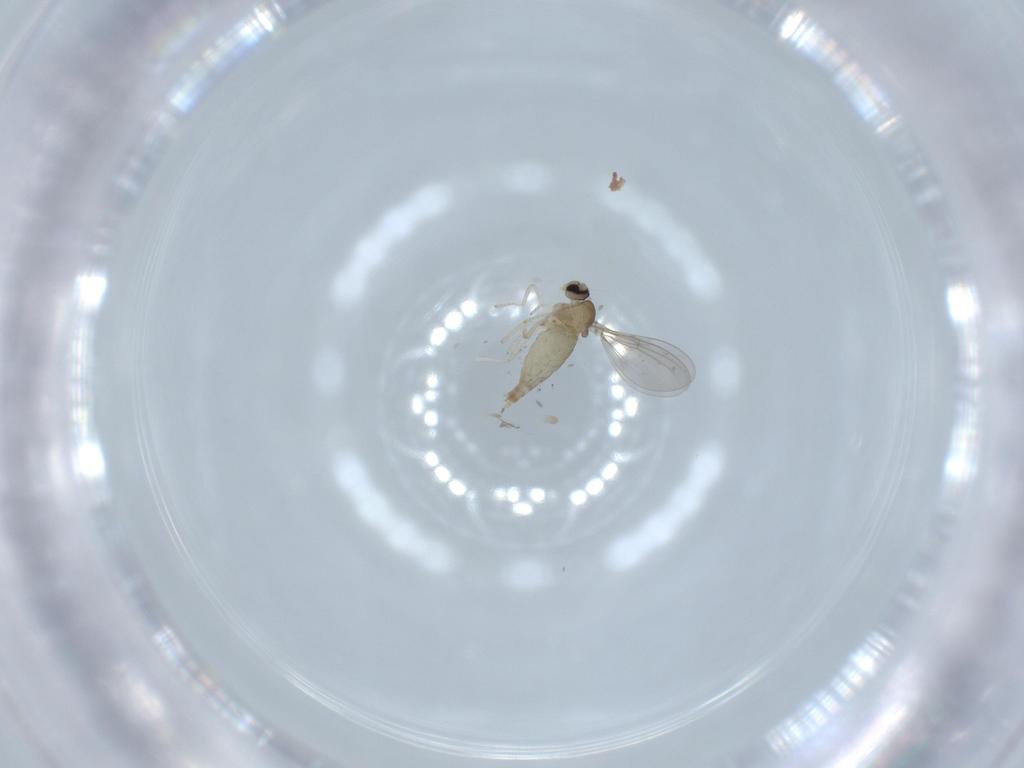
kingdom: Animalia
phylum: Arthropoda
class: Insecta
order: Diptera
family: Cecidomyiidae
